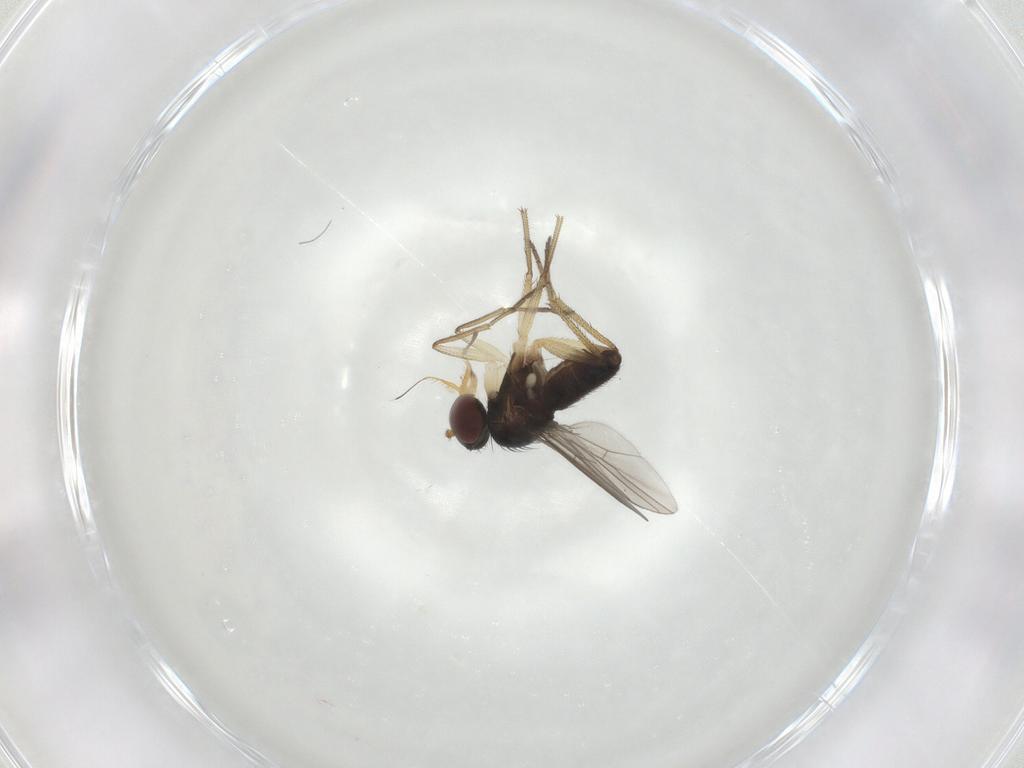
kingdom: Animalia
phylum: Arthropoda
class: Insecta
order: Diptera
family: Dolichopodidae
